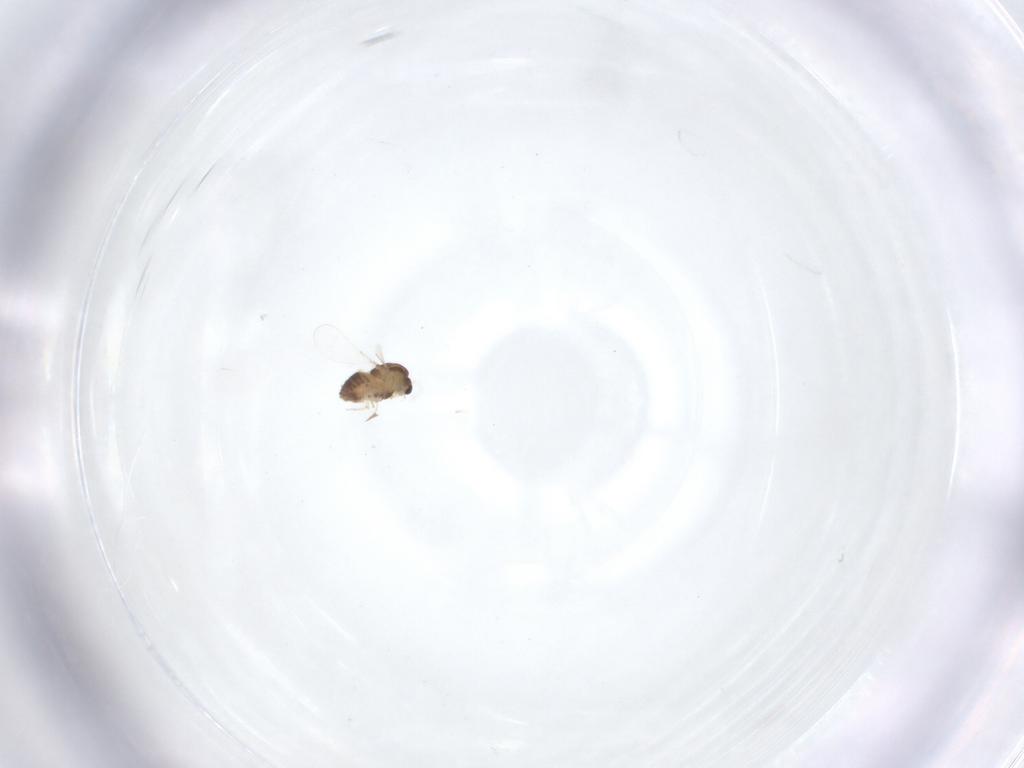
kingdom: Animalia
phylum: Arthropoda
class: Insecta
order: Diptera
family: Chironomidae
